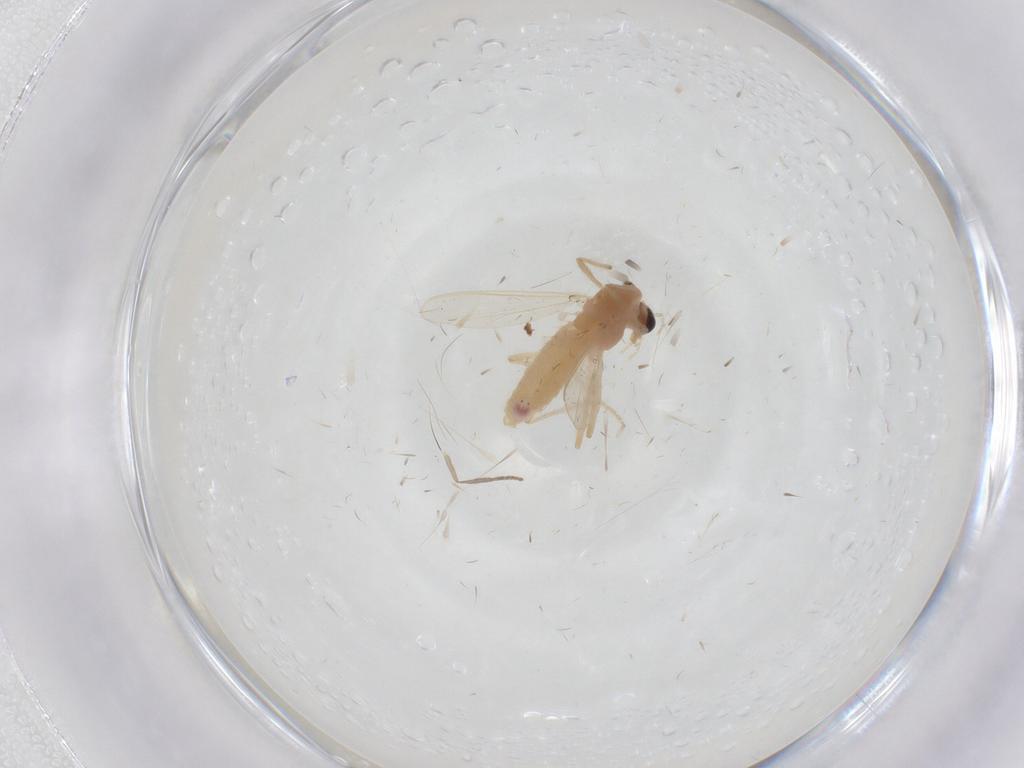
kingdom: Animalia
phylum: Arthropoda
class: Insecta
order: Diptera
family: Chironomidae
